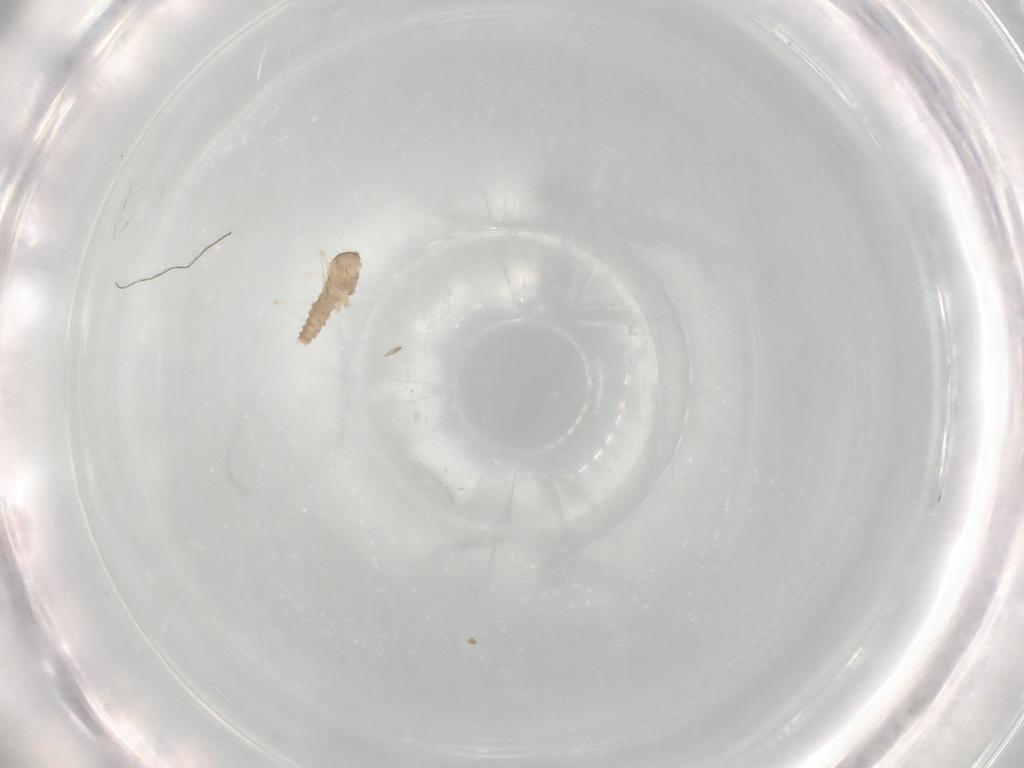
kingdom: Animalia
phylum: Arthropoda
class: Insecta
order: Diptera
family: Cecidomyiidae
